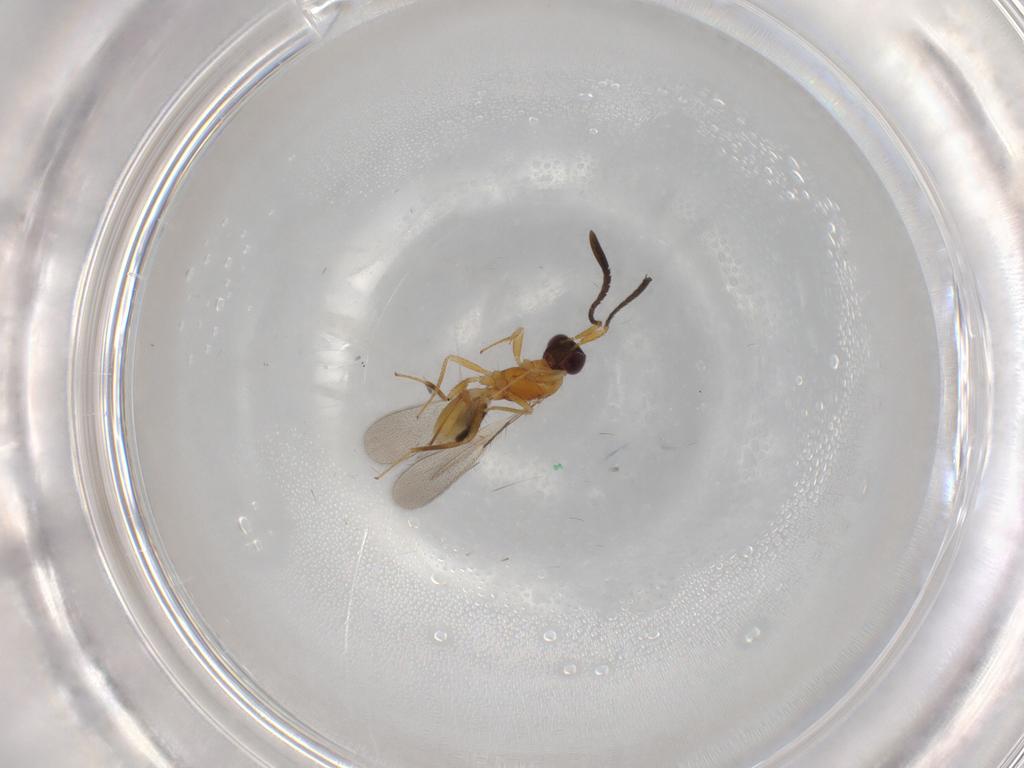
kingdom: Animalia
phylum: Arthropoda
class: Insecta
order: Hymenoptera
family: Mymaridae
